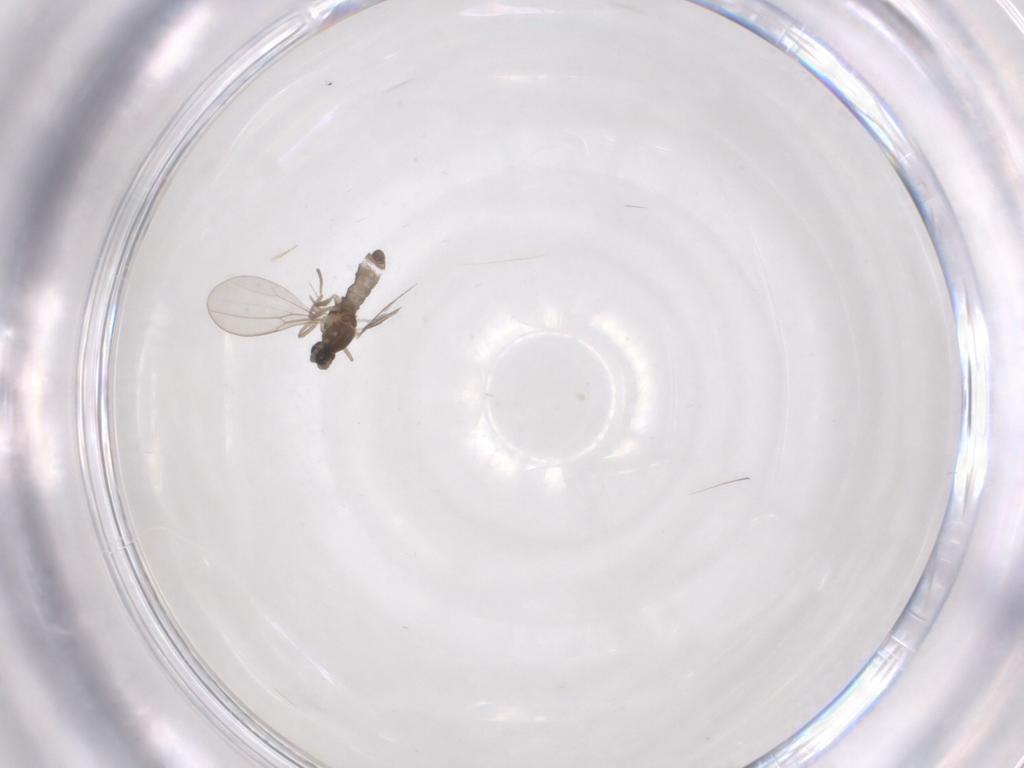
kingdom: Animalia
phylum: Arthropoda
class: Insecta
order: Diptera
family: Cecidomyiidae
